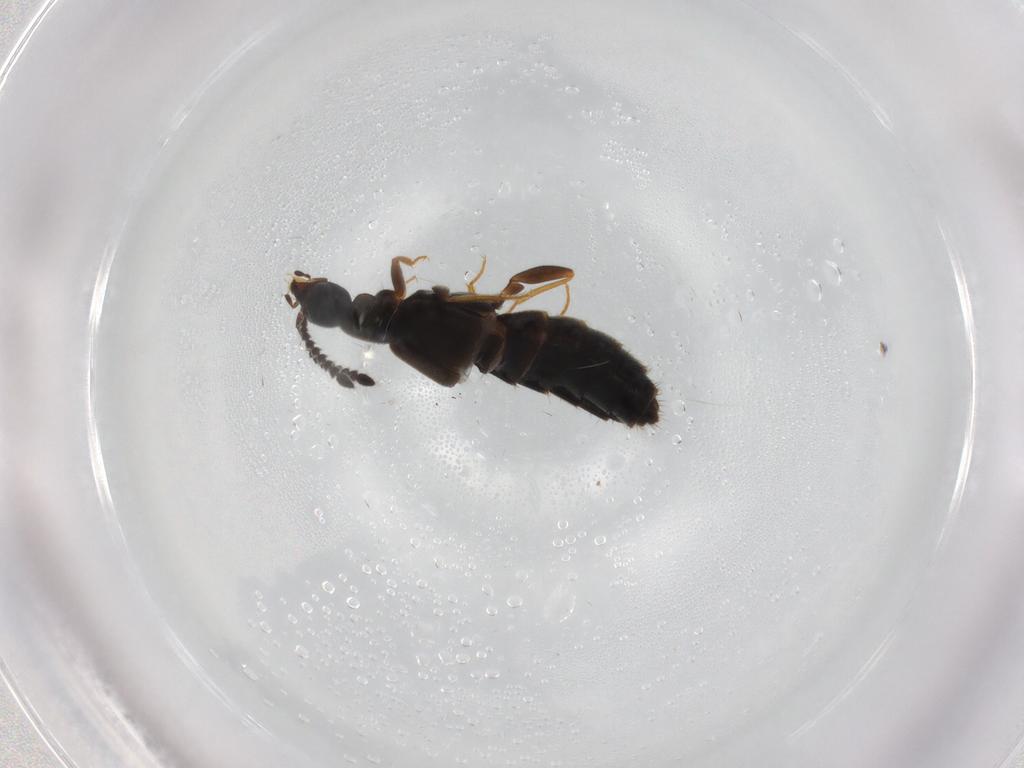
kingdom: Animalia
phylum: Arthropoda
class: Insecta
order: Coleoptera
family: Staphylinidae
